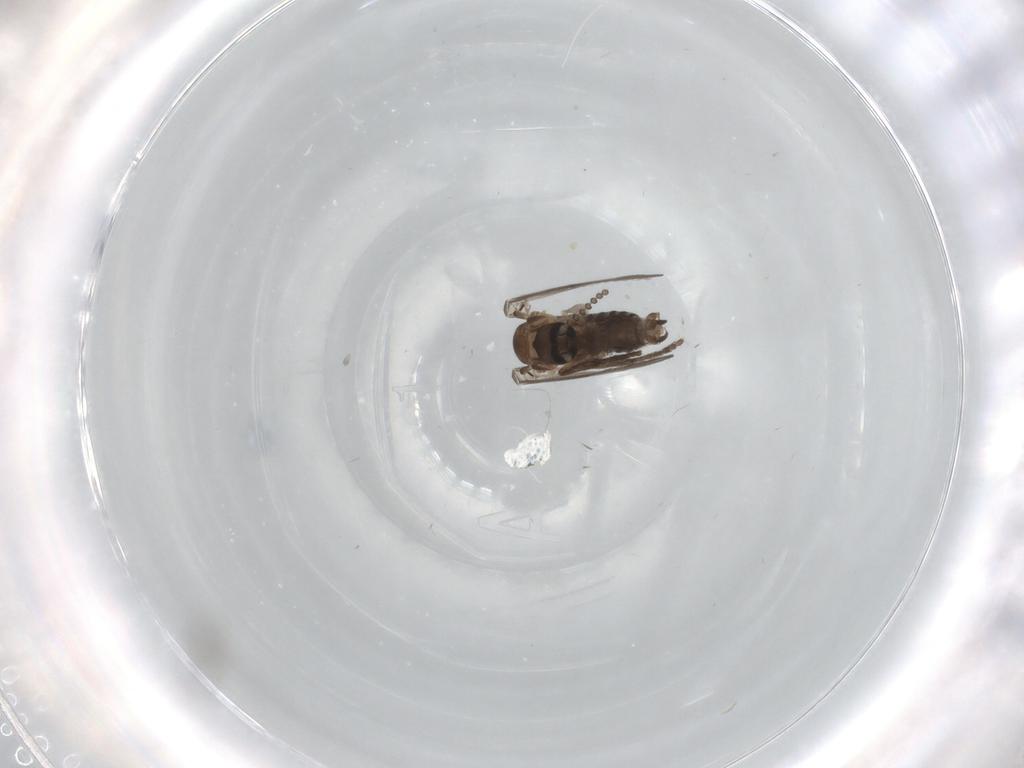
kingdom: Animalia
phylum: Arthropoda
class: Insecta
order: Diptera
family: Psychodidae
